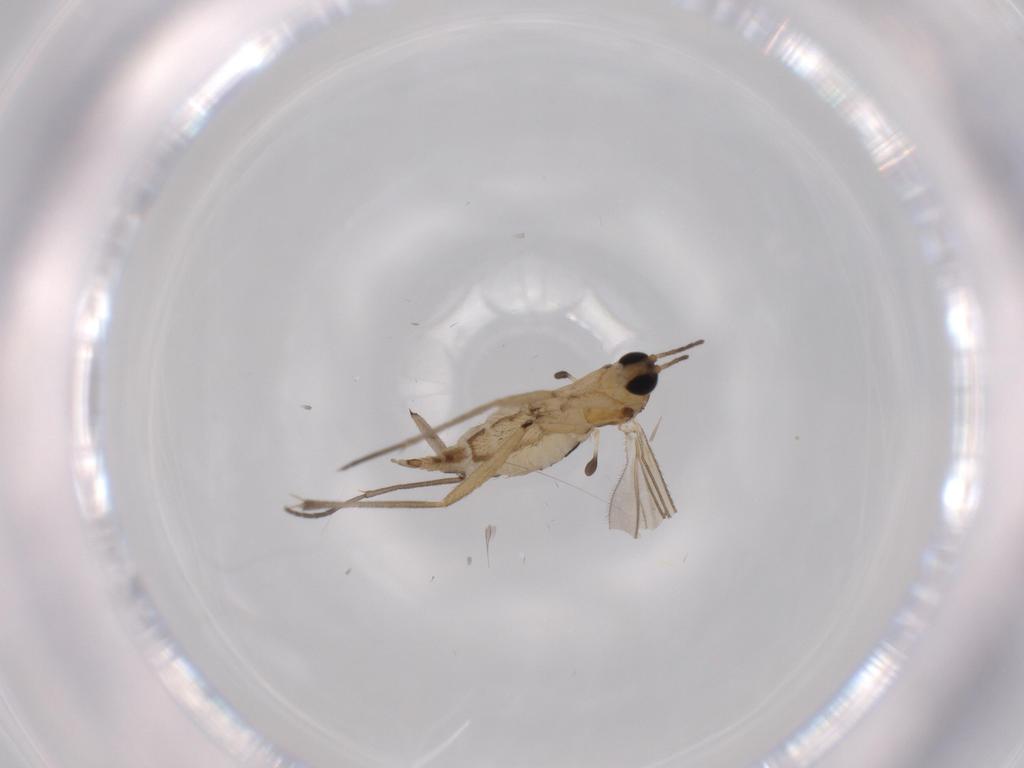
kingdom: Animalia
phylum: Arthropoda
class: Insecta
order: Diptera
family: Sciaridae
